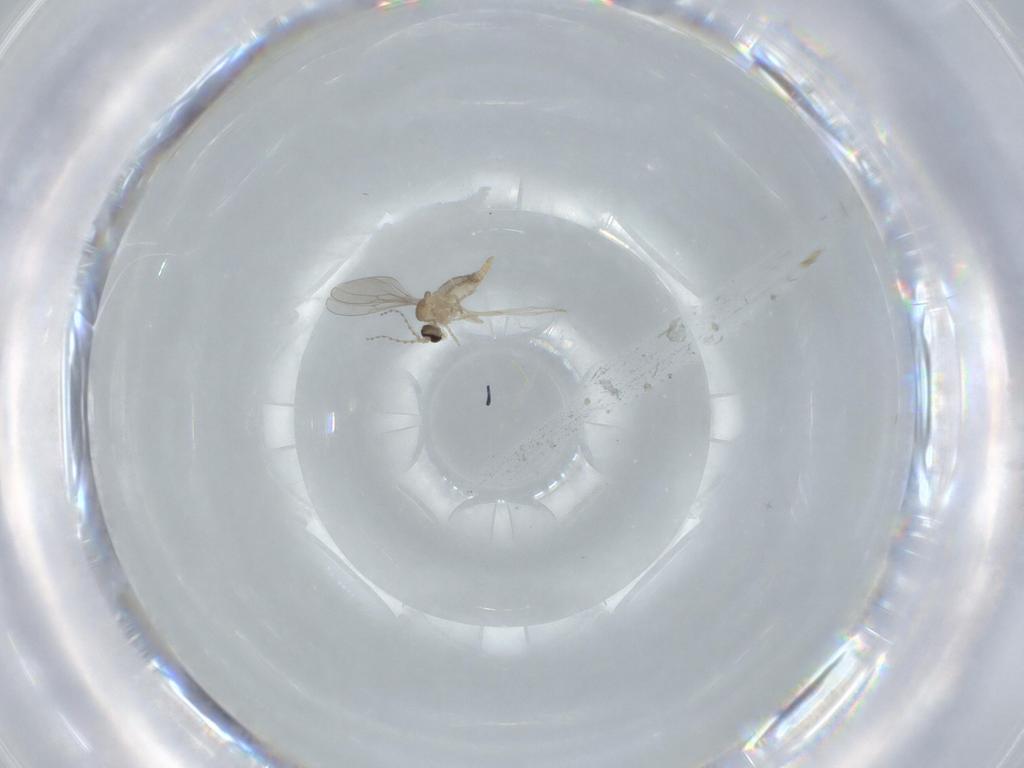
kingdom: Animalia
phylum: Arthropoda
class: Insecta
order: Diptera
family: Cecidomyiidae
